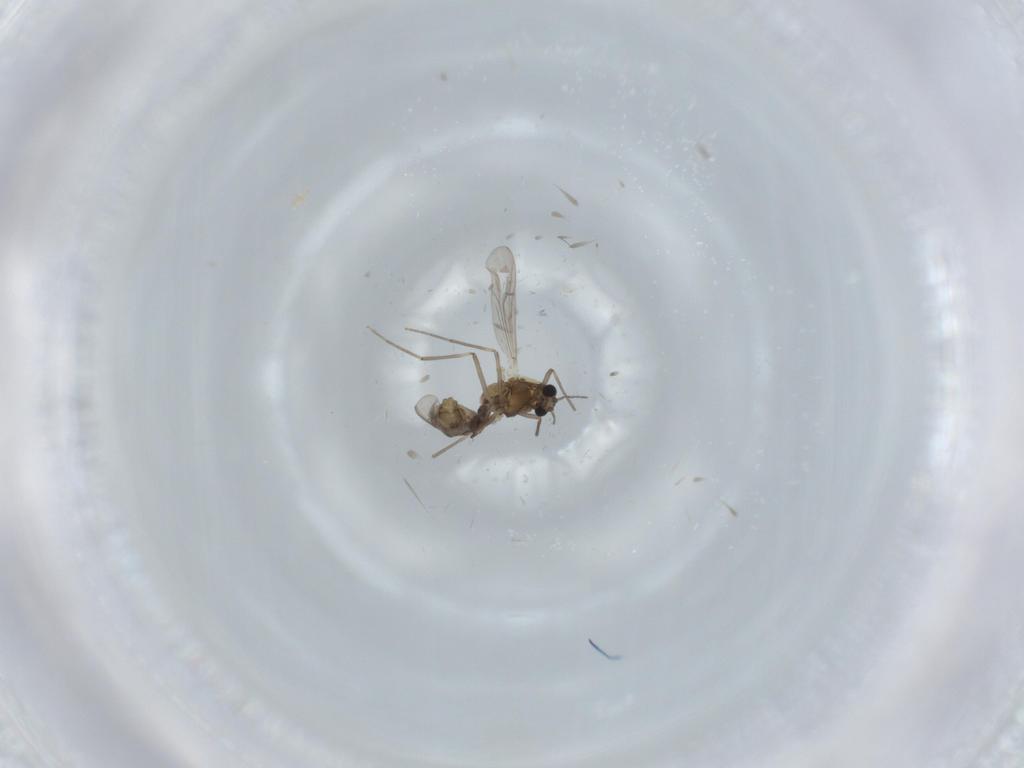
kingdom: Animalia
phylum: Arthropoda
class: Insecta
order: Diptera
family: Chironomidae
